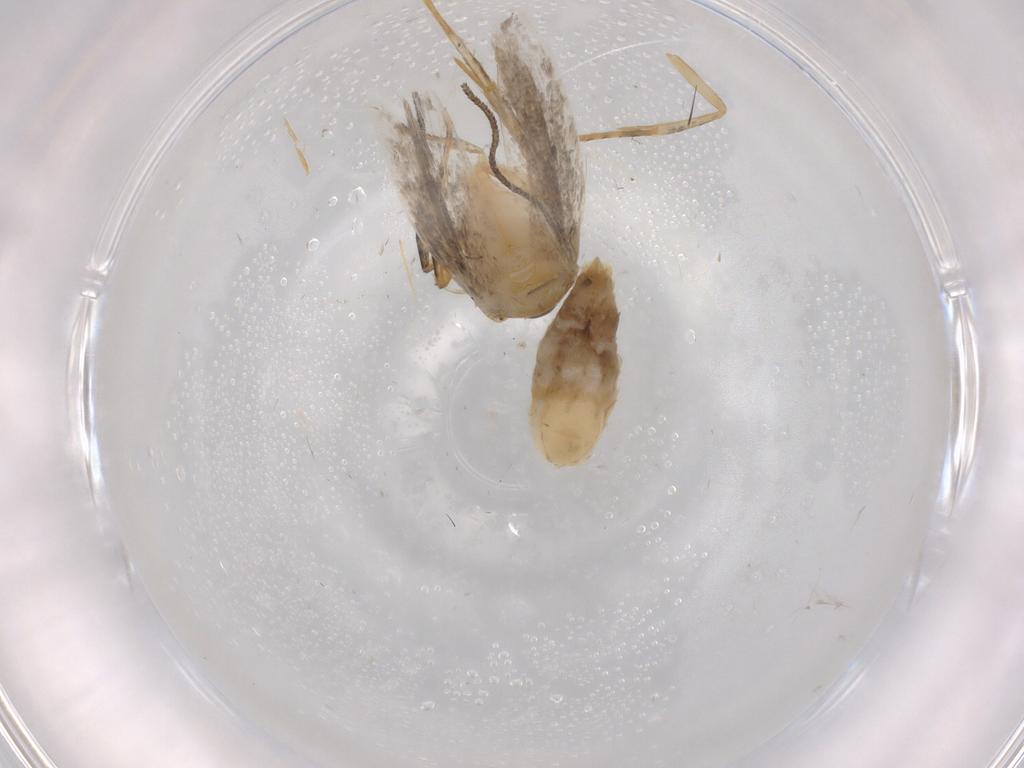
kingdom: Animalia
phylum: Arthropoda
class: Insecta
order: Lepidoptera
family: Autostichidae
